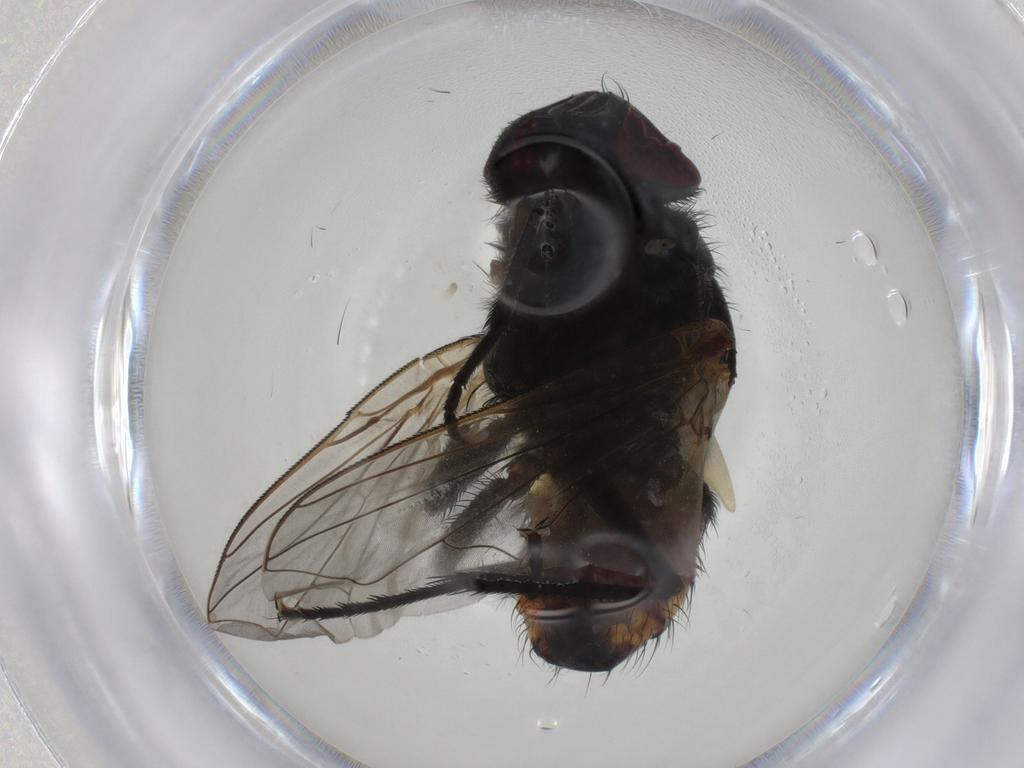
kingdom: Animalia
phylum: Arthropoda
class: Insecta
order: Diptera
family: Muscidae
